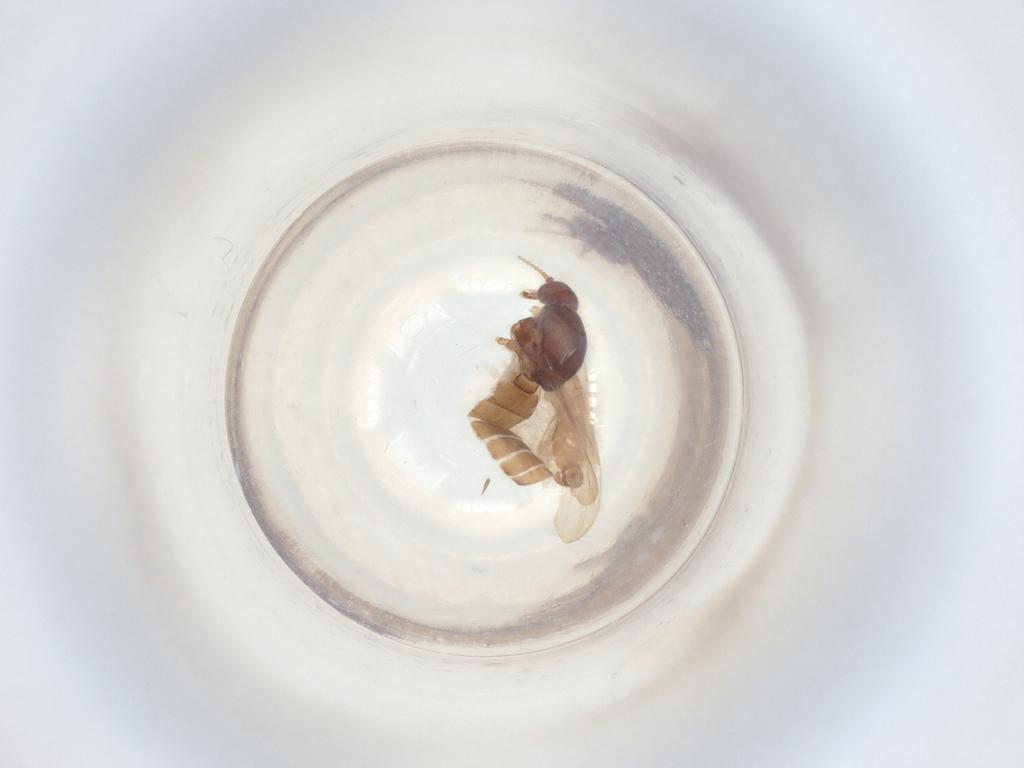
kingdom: Animalia
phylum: Arthropoda
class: Insecta
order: Diptera
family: Ceratopogonidae
